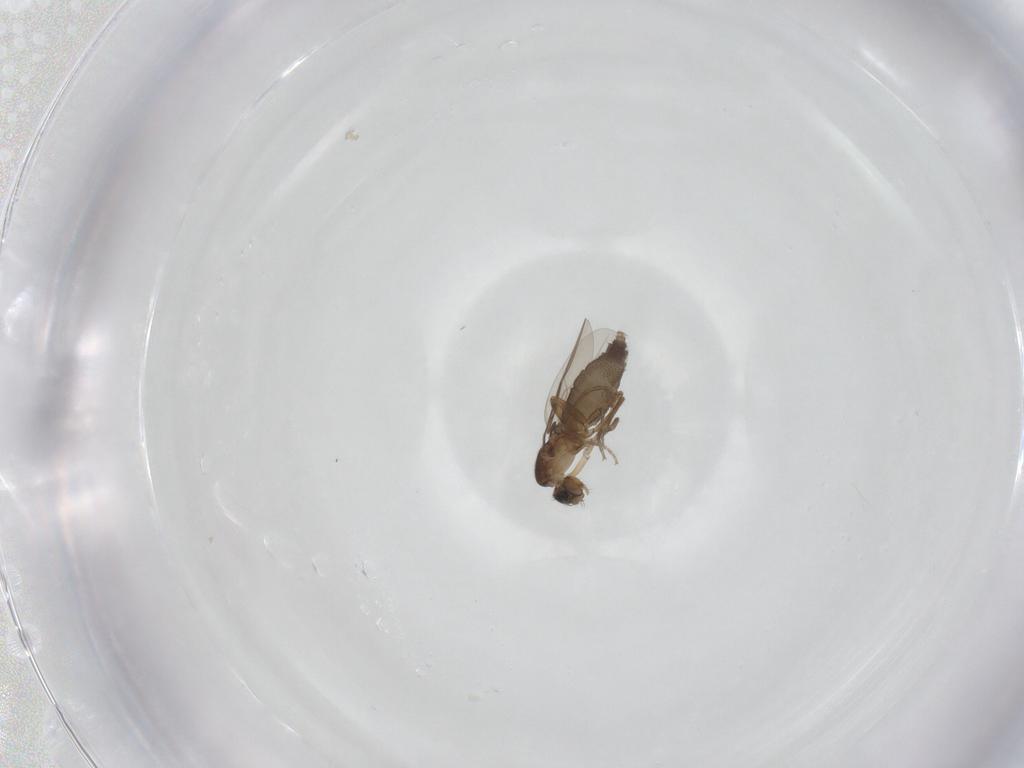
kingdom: Animalia
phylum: Arthropoda
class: Insecta
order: Diptera
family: Phoridae
